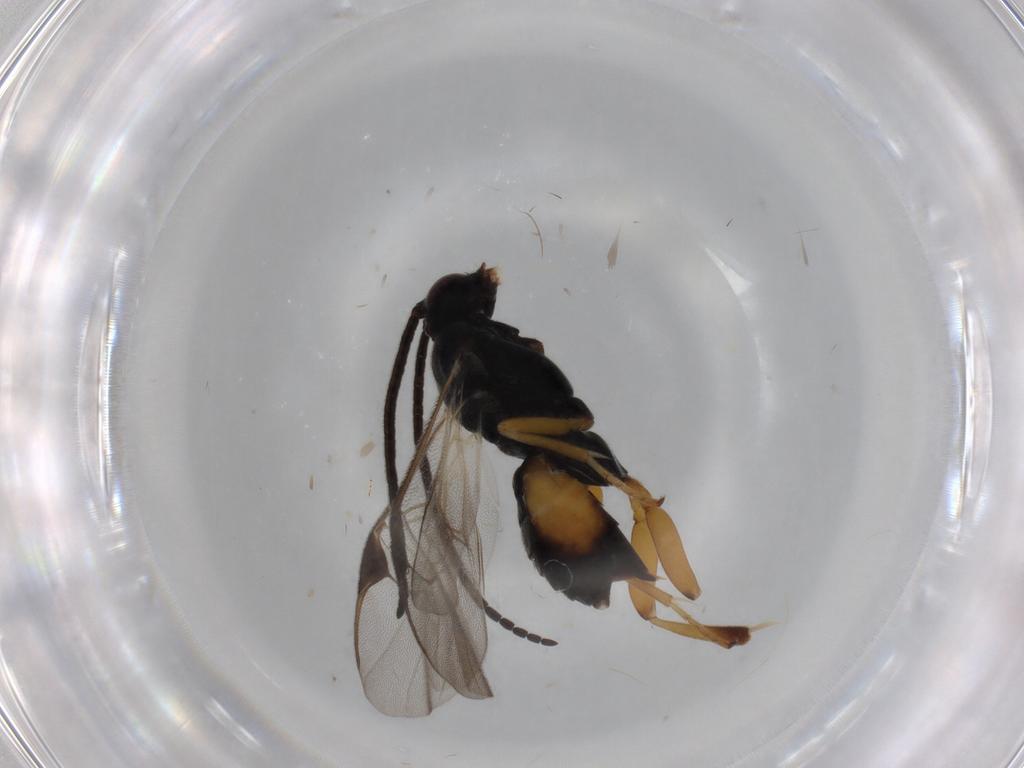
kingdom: Animalia
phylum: Arthropoda
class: Insecta
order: Hymenoptera
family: Braconidae
